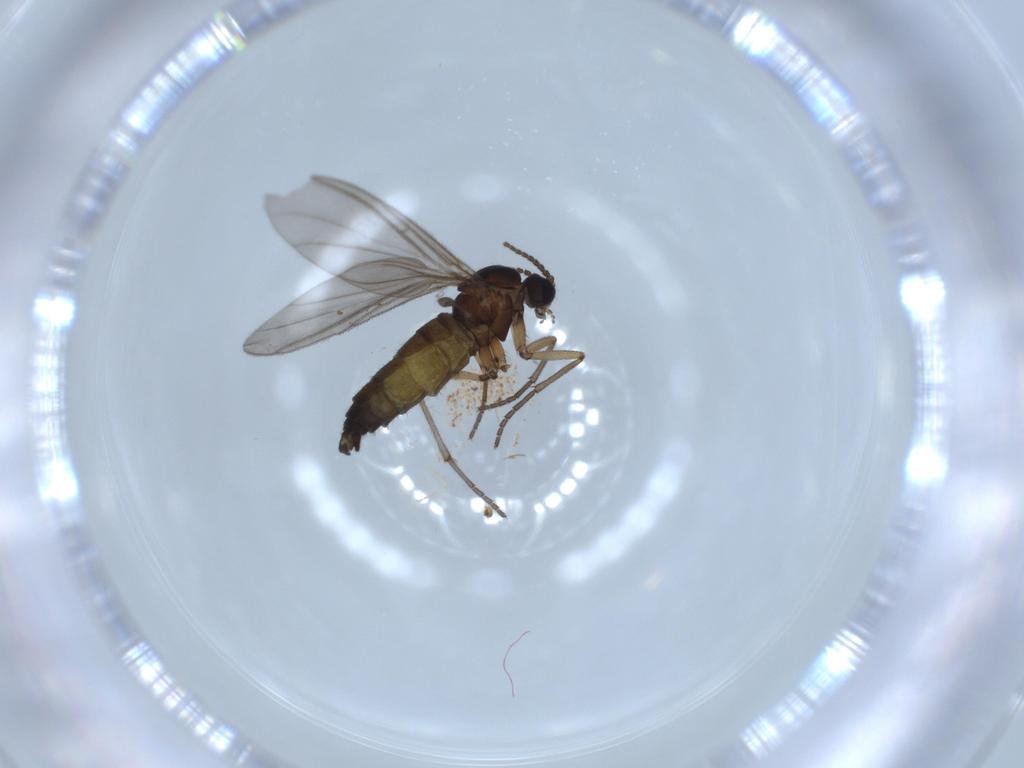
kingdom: Animalia
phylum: Arthropoda
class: Insecta
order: Diptera
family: Sciaridae
